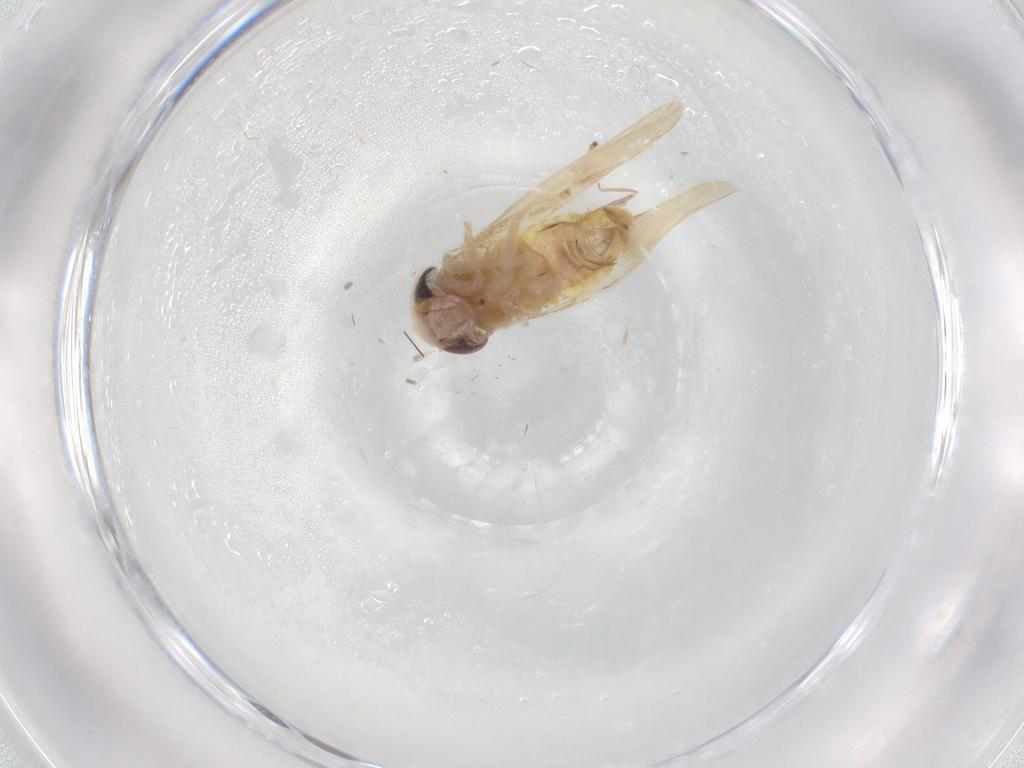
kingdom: Animalia
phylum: Arthropoda
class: Insecta
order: Hemiptera
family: Cicadellidae
